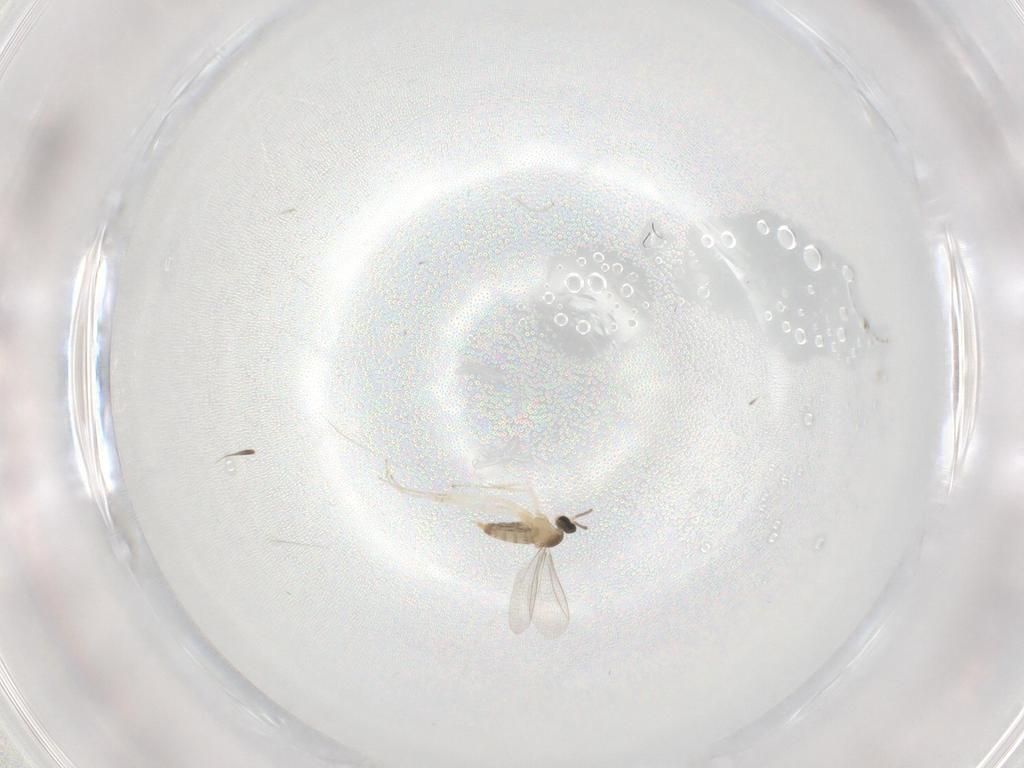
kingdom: Animalia
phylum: Arthropoda
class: Insecta
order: Diptera
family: Cecidomyiidae
